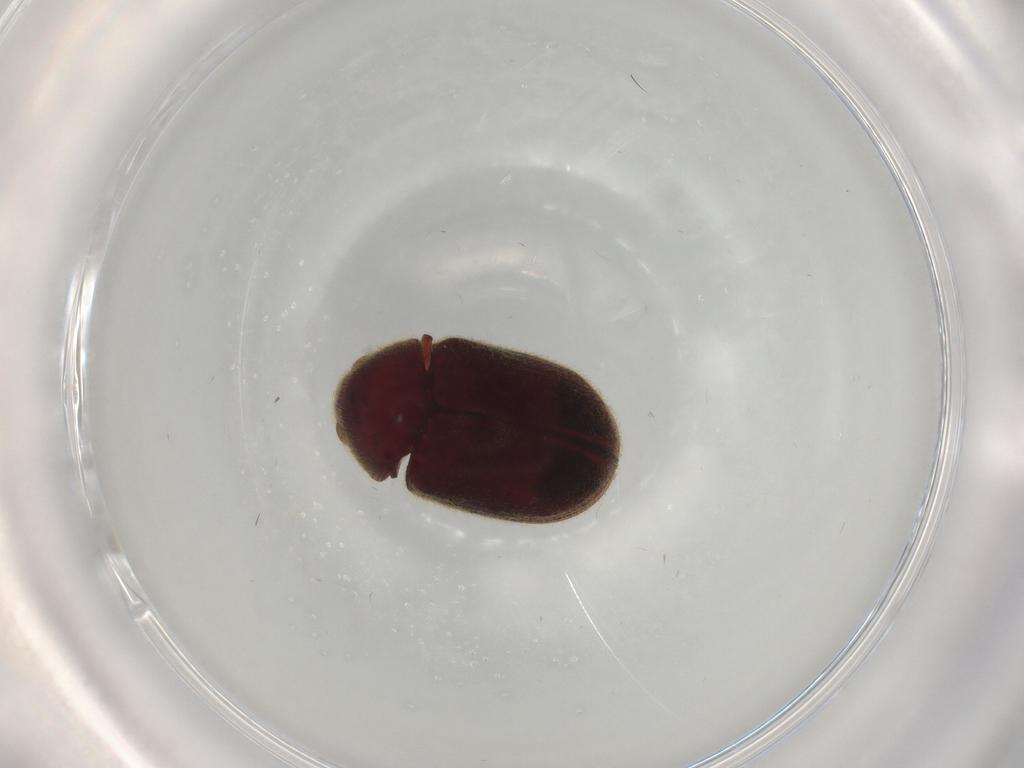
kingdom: Animalia
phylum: Arthropoda
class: Insecta
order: Coleoptera
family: Ptinidae
